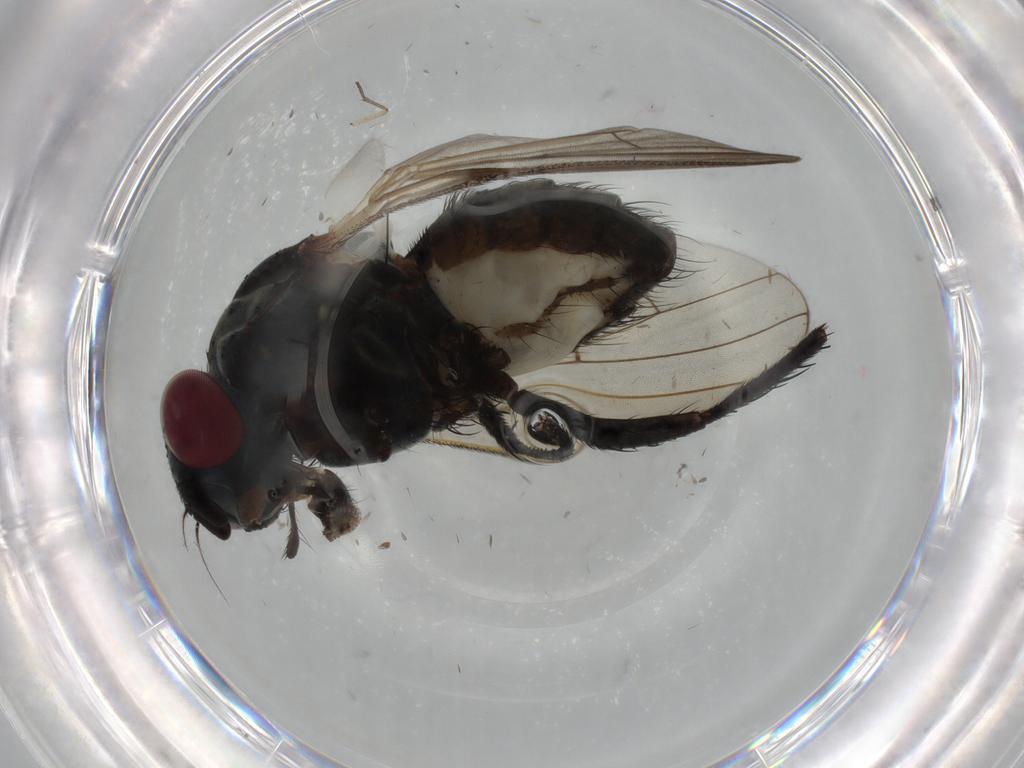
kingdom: Animalia
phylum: Arthropoda
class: Insecta
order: Diptera
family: Anthomyiidae
